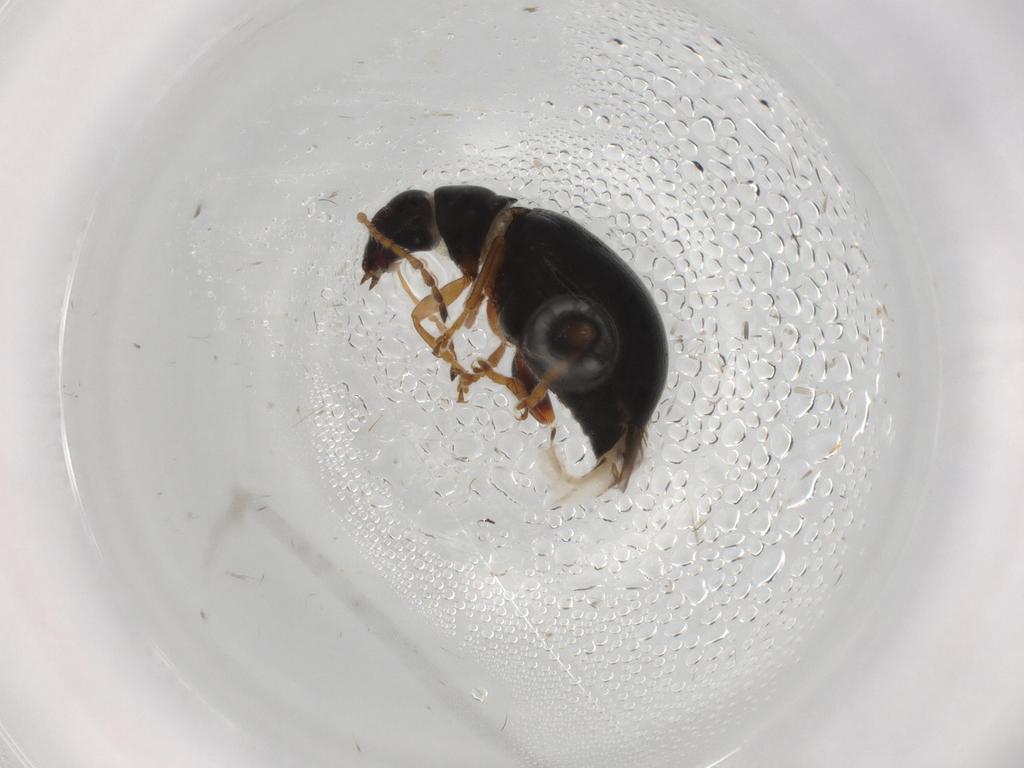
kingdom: Animalia
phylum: Arthropoda
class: Insecta
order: Coleoptera
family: Chrysomelidae
